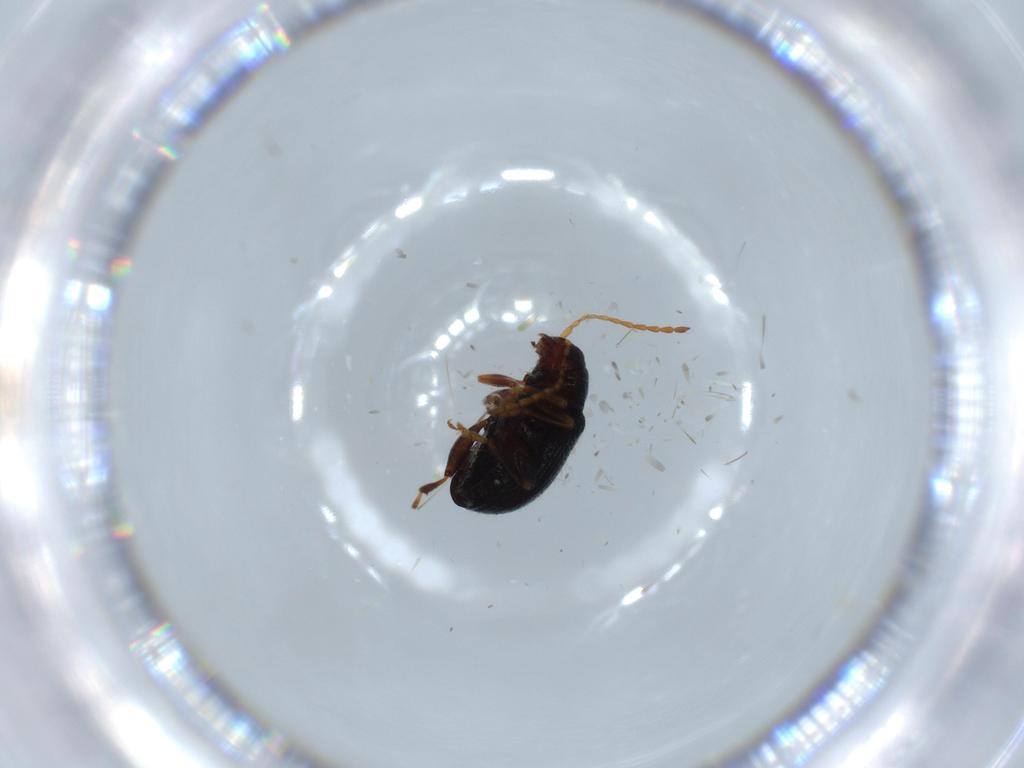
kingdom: Animalia
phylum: Arthropoda
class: Insecta
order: Coleoptera
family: Chrysomelidae
